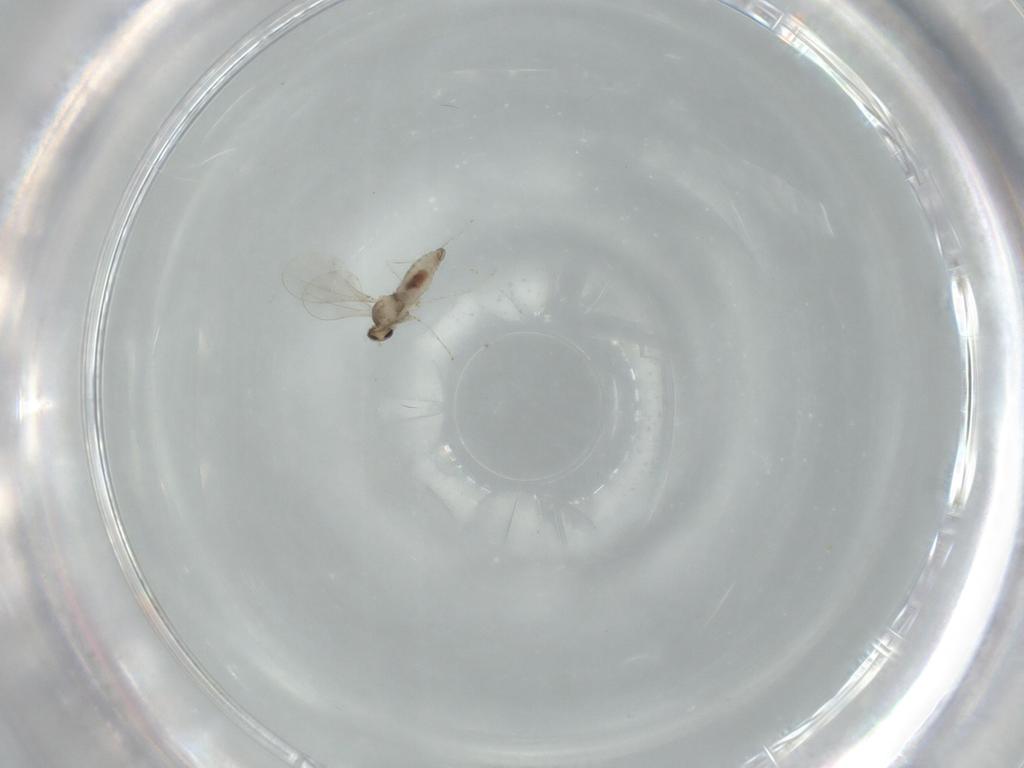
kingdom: Animalia
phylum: Arthropoda
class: Insecta
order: Diptera
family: Cecidomyiidae
